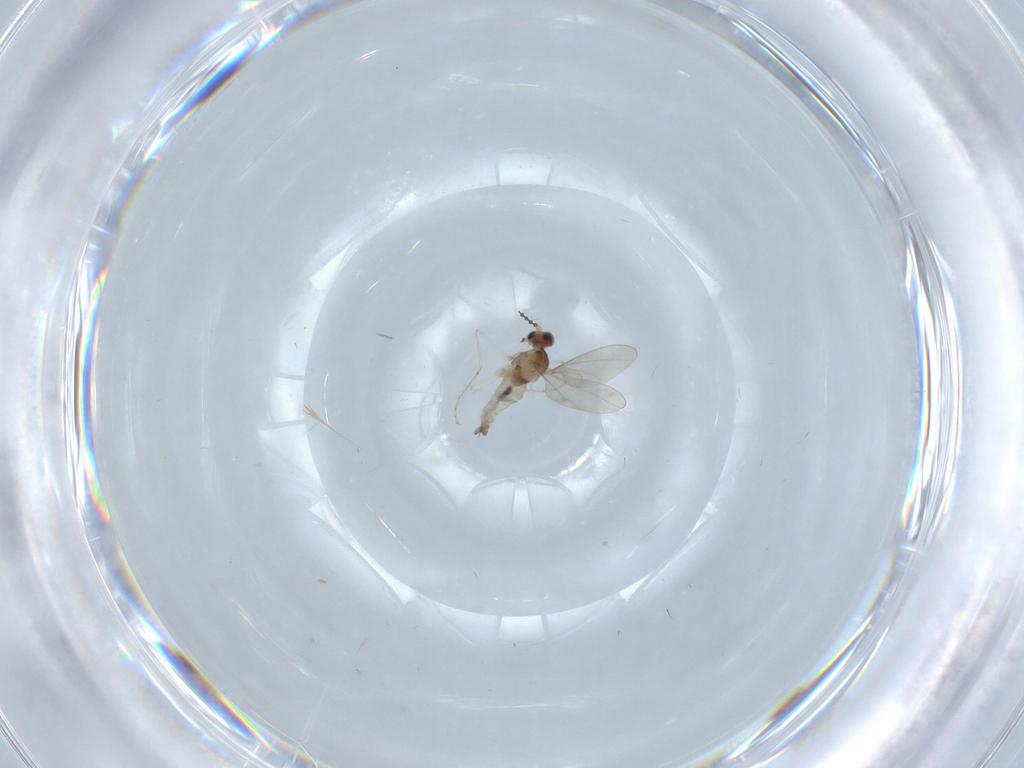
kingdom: Animalia
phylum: Arthropoda
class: Insecta
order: Diptera
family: Cecidomyiidae
